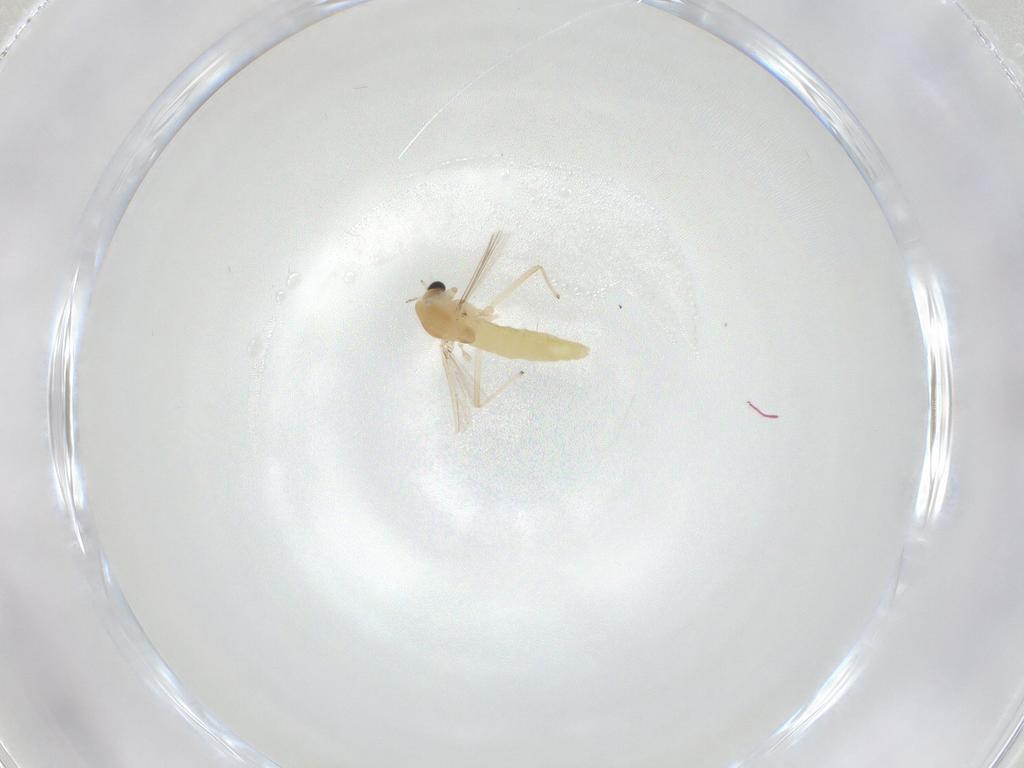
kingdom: Animalia
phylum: Arthropoda
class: Insecta
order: Diptera
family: Chironomidae
